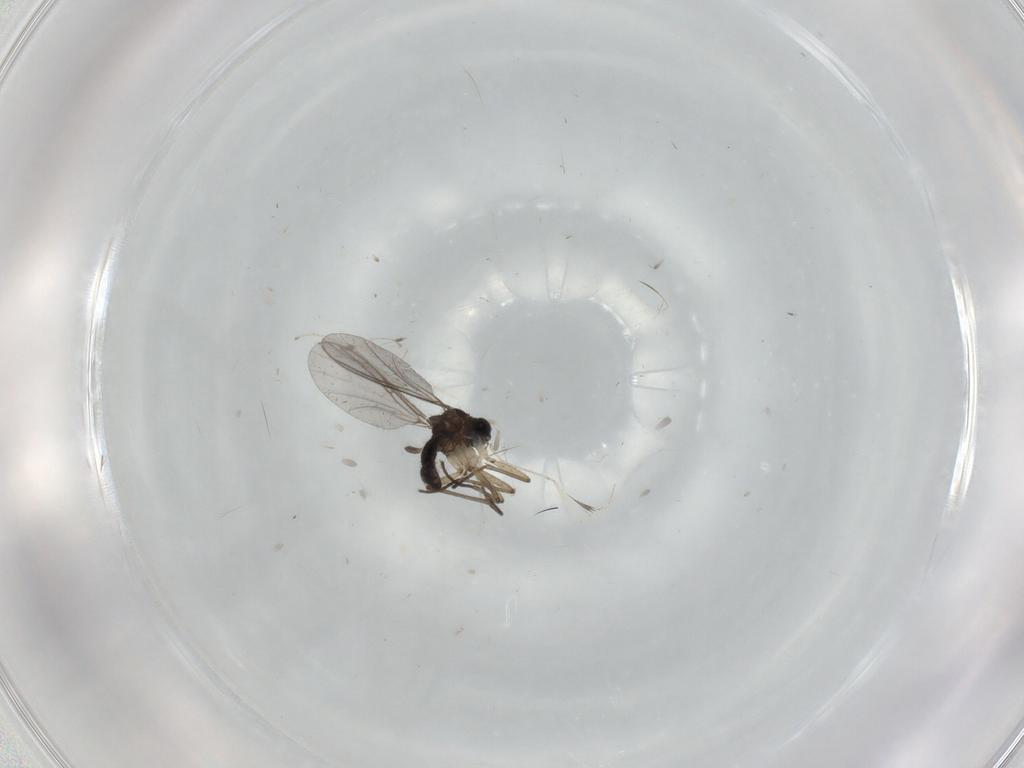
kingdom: Animalia
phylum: Arthropoda
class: Insecta
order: Diptera
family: Sciaridae
